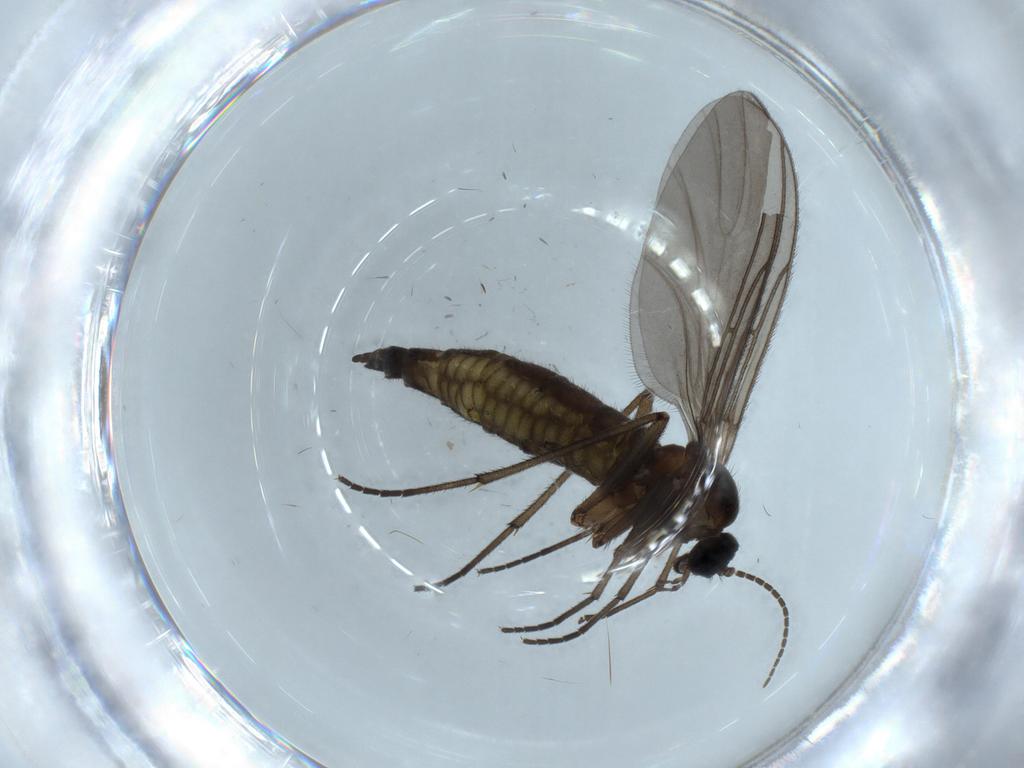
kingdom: Animalia
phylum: Arthropoda
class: Insecta
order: Diptera
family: Sciaridae
